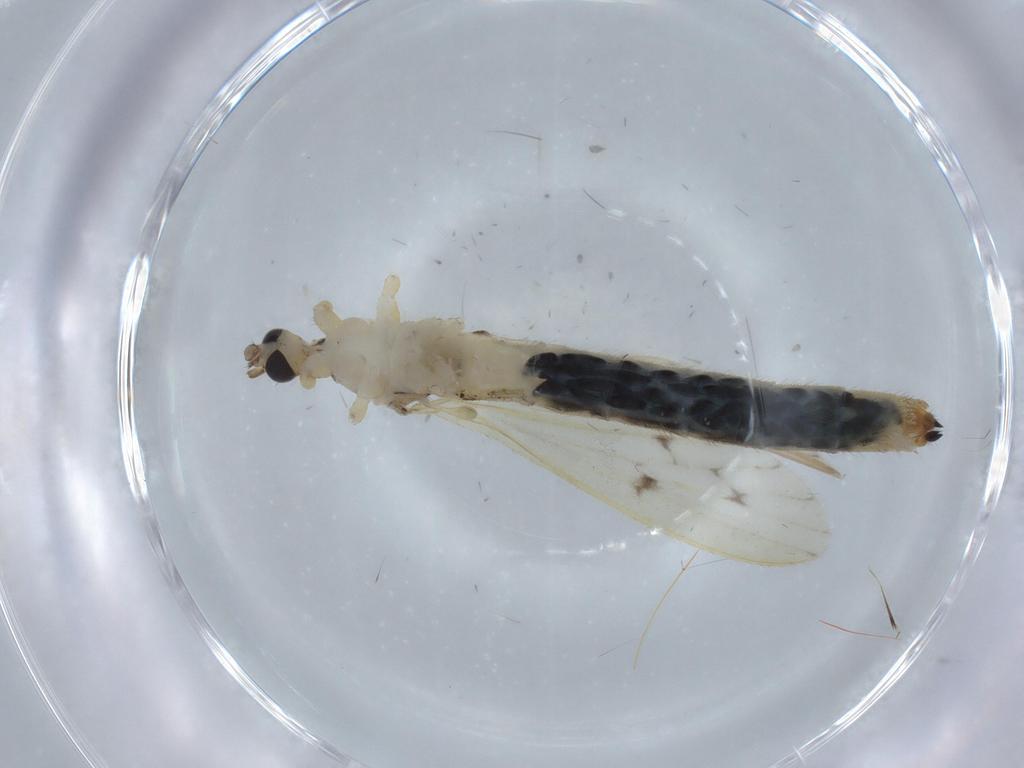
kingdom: Animalia
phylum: Arthropoda
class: Insecta
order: Diptera
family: Limoniidae
